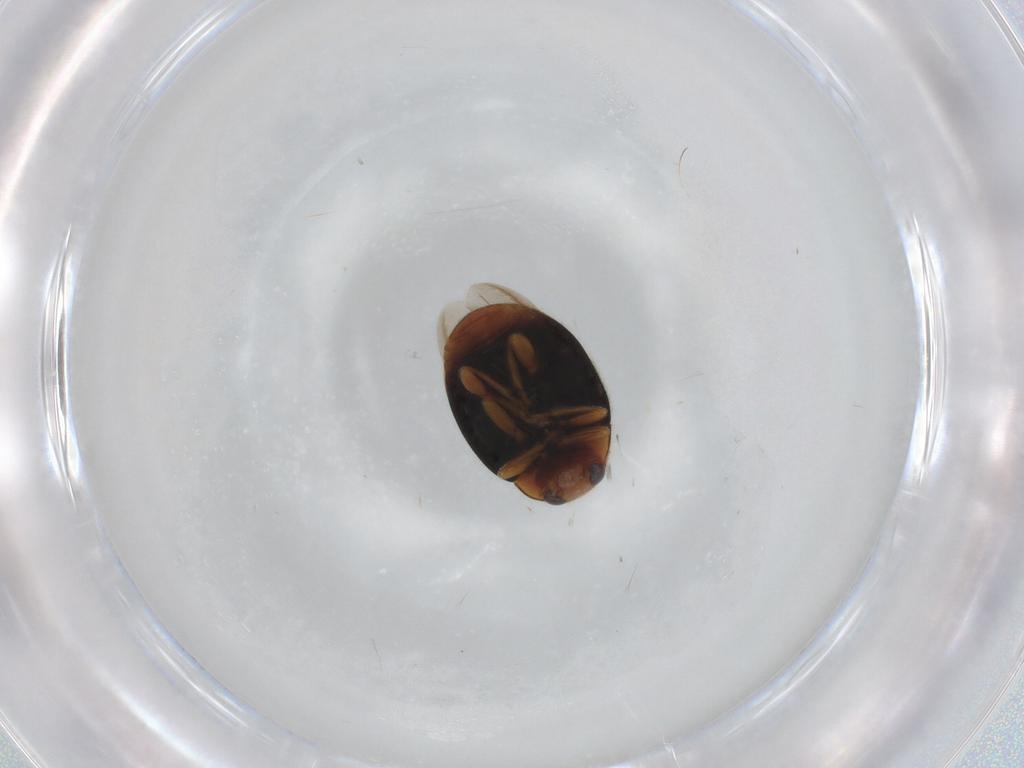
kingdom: Animalia
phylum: Arthropoda
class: Insecta
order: Coleoptera
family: Coccinellidae
